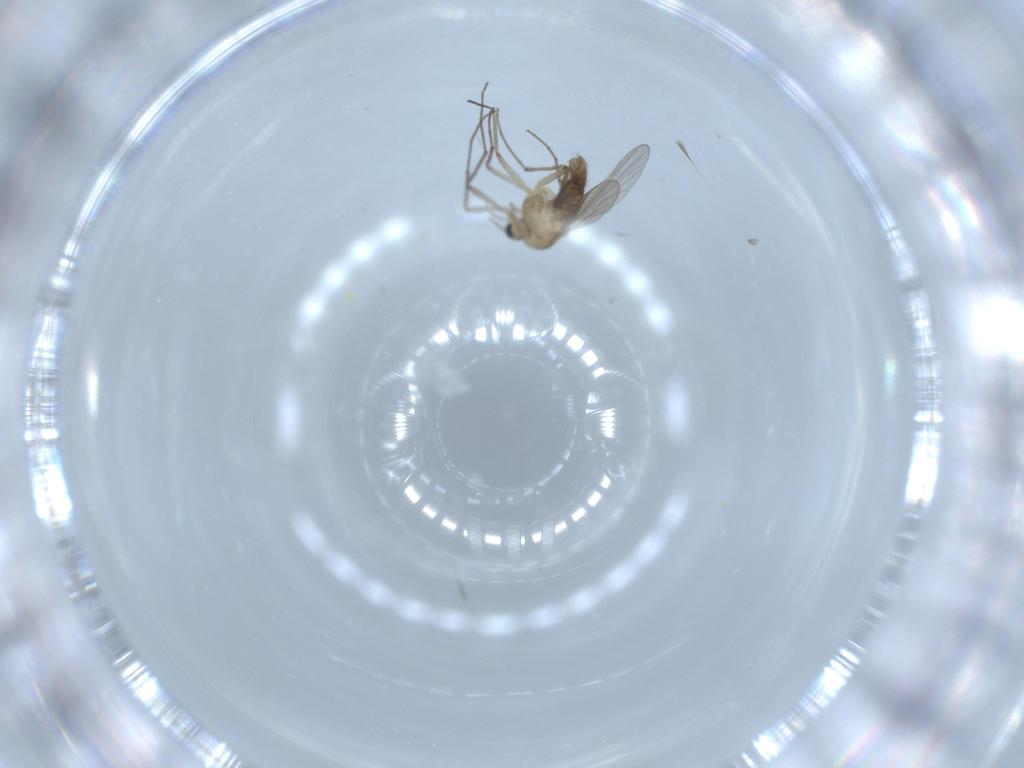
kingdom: Animalia
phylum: Arthropoda
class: Insecta
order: Diptera
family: Chironomidae
